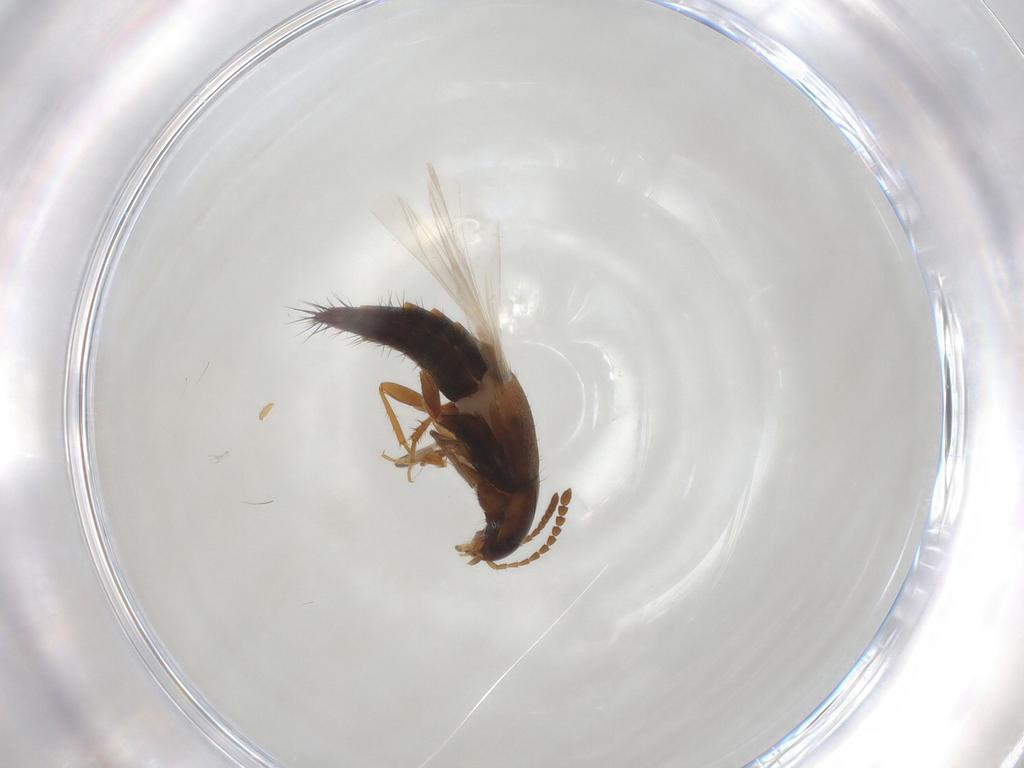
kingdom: Animalia
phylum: Arthropoda
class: Insecta
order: Coleoptera
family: Staphylinidae
